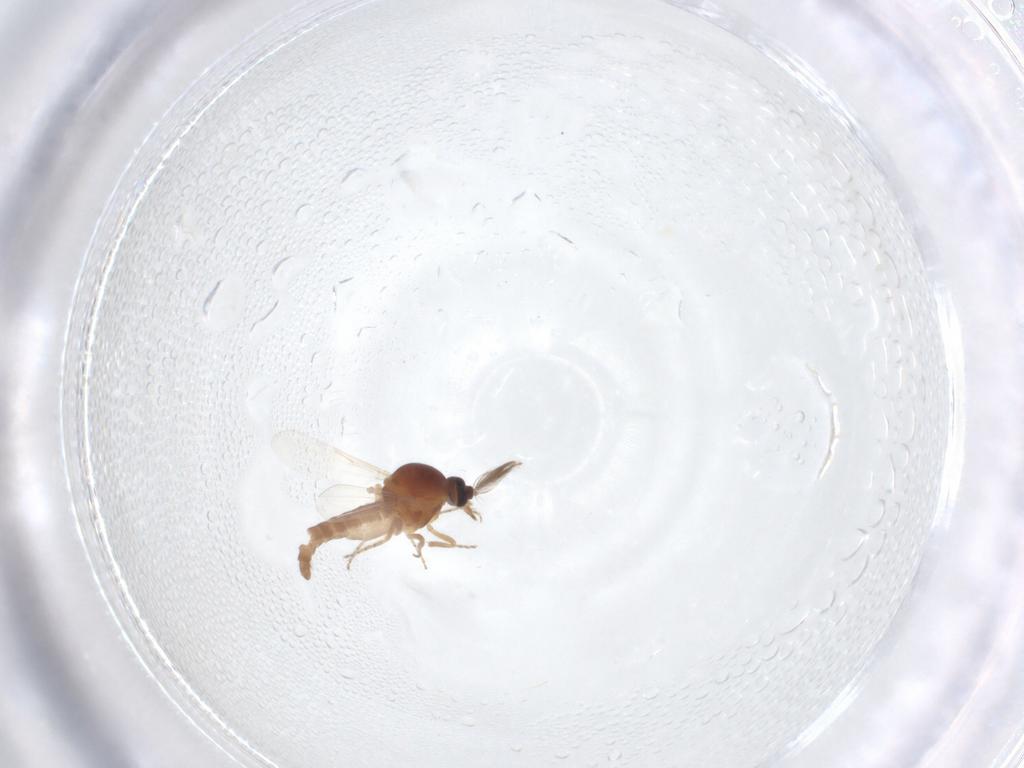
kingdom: Animalia
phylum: Arthropoda
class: Insecta
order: Diptera
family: Ceratopogonidae
